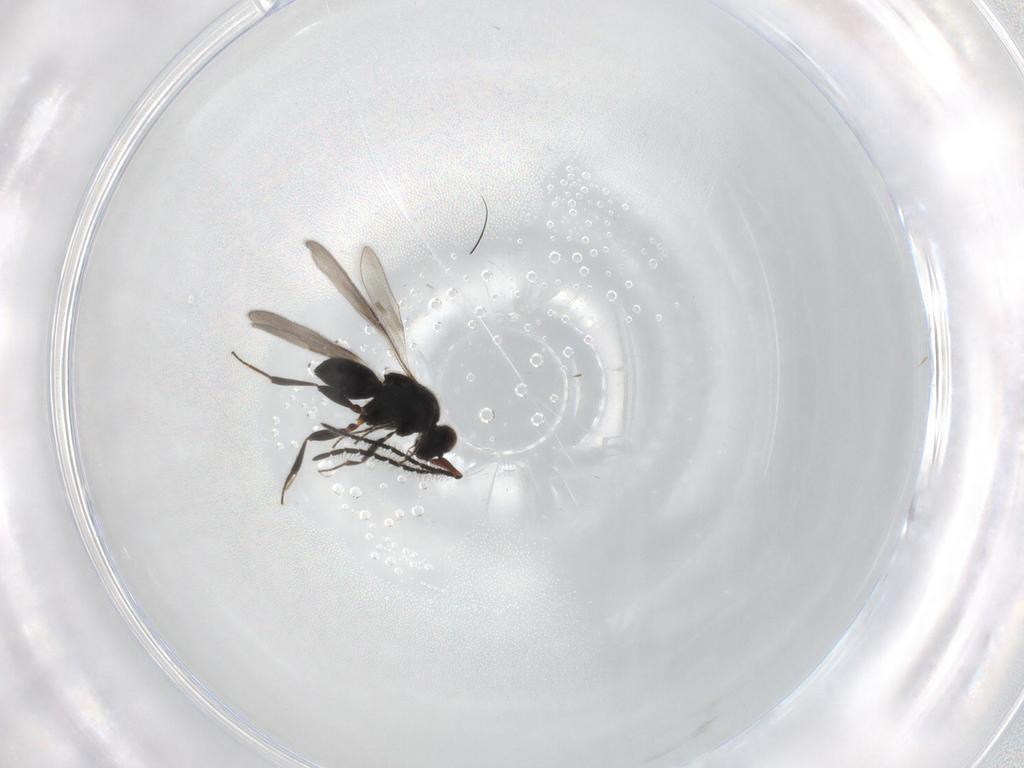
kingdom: Animalia
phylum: Arthropoda
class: Insecta
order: Hymenoptera
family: Ceraphronidae
